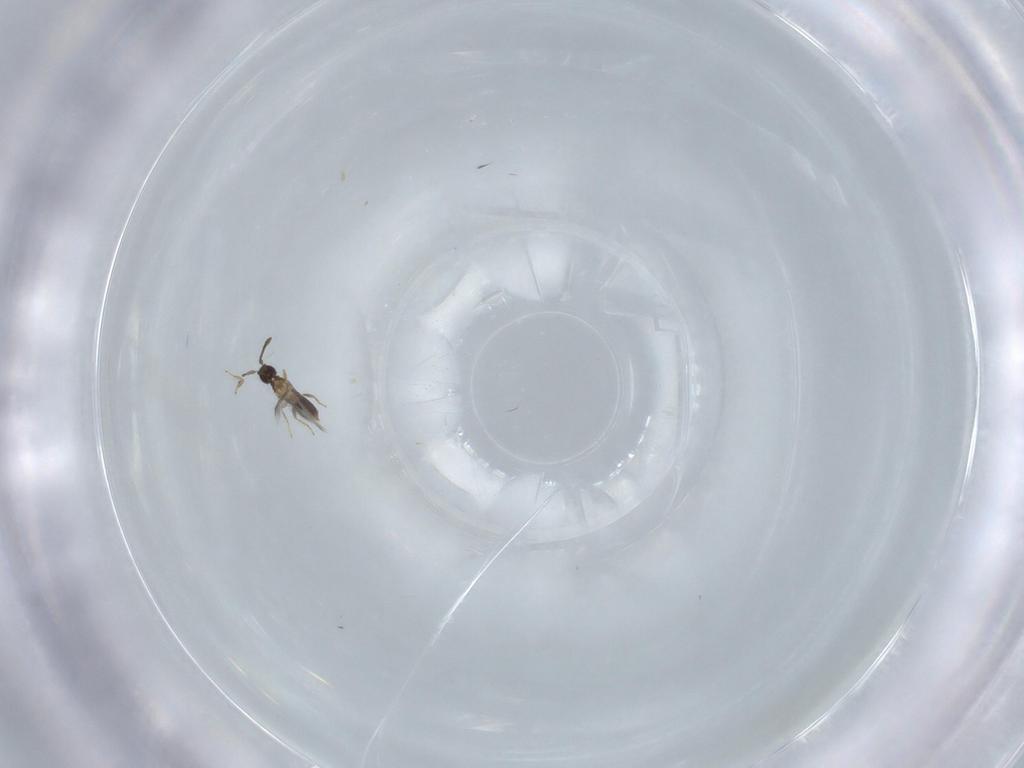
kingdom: Animalia
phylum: Arthropoda
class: Insecta
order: Hymenoptera
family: Mymaridae
